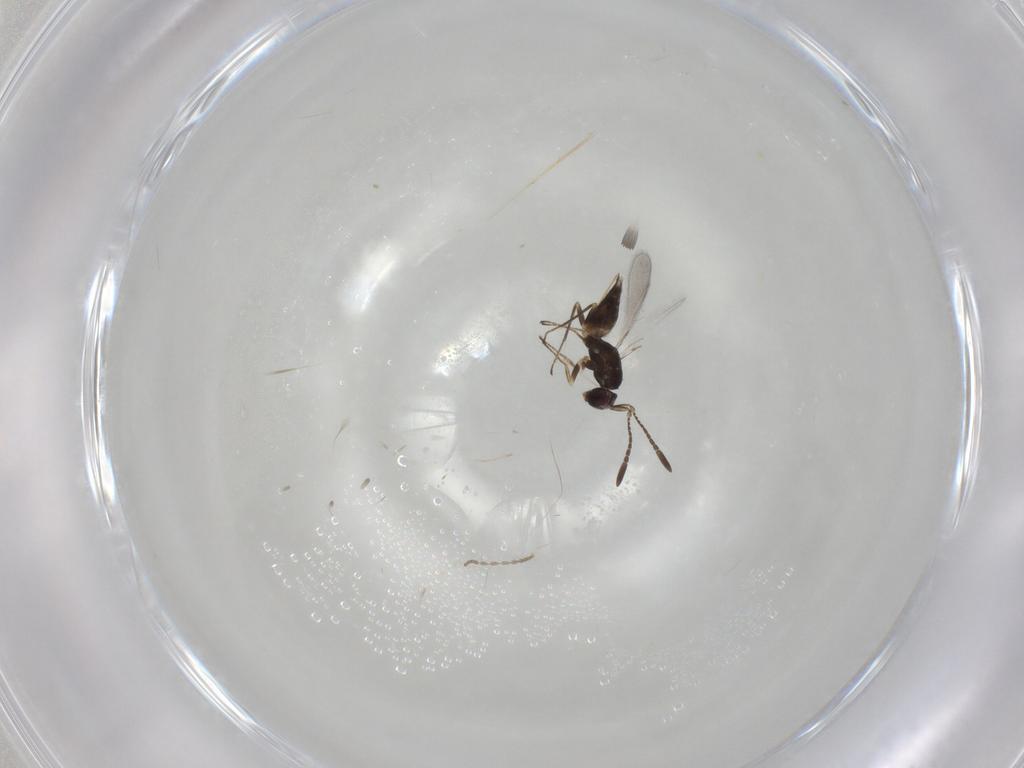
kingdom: Animalia
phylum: Arthropoda
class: Insecta
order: Hymenoptera
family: Mymaridae
